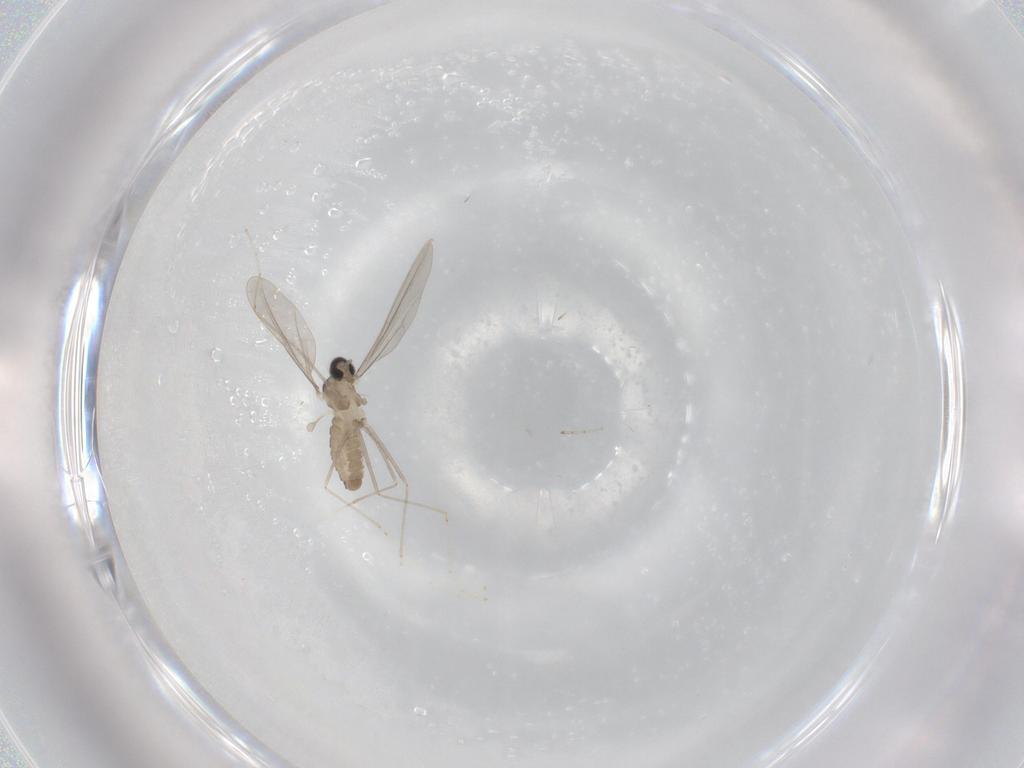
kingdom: Animalia
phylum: Arthropoda
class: Insecta
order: Diptera
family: Cecidomyiidae
